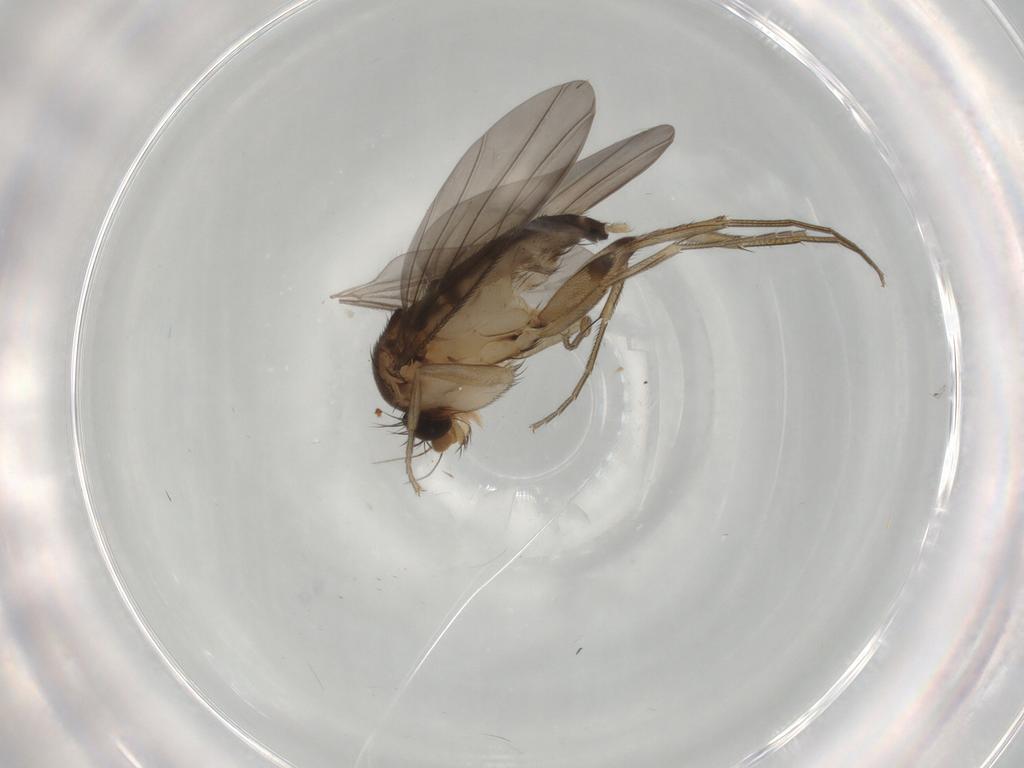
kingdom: Animalia
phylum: Arthropoda
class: Insecta
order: Diptera
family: Phoridae
